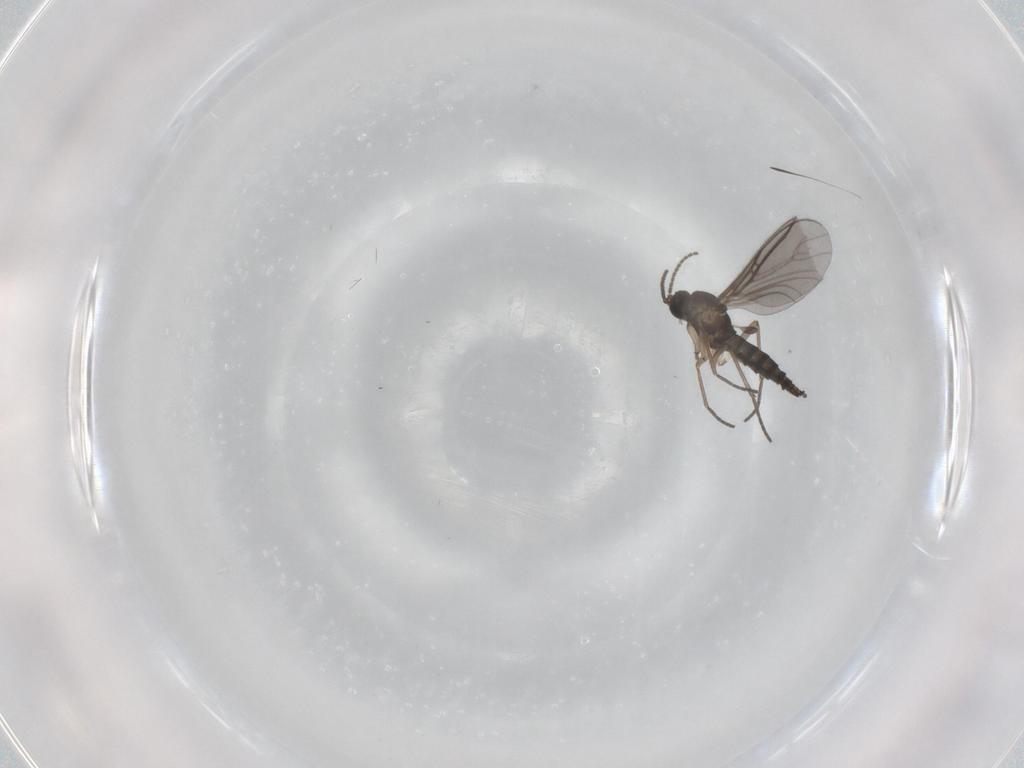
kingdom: Animalia
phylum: Arthropoda
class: Insecta
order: Diptera
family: Sciaridae
